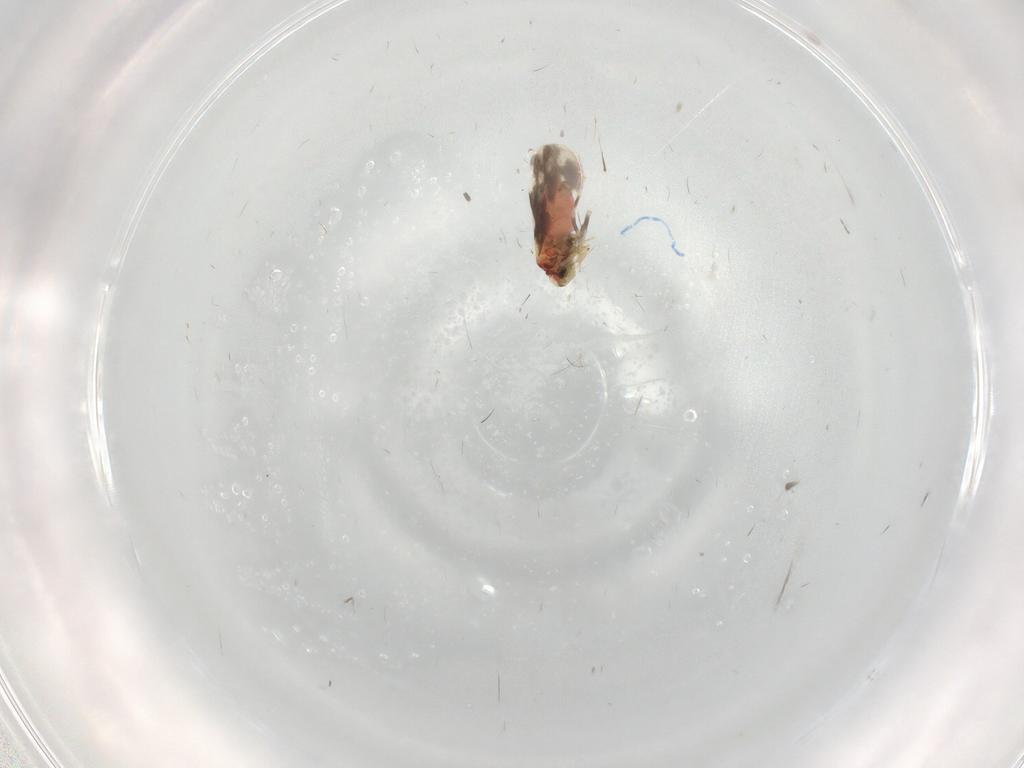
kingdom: Animalia
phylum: Arthropoda
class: Insecta
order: Hemiptera
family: Aleyrodidae
